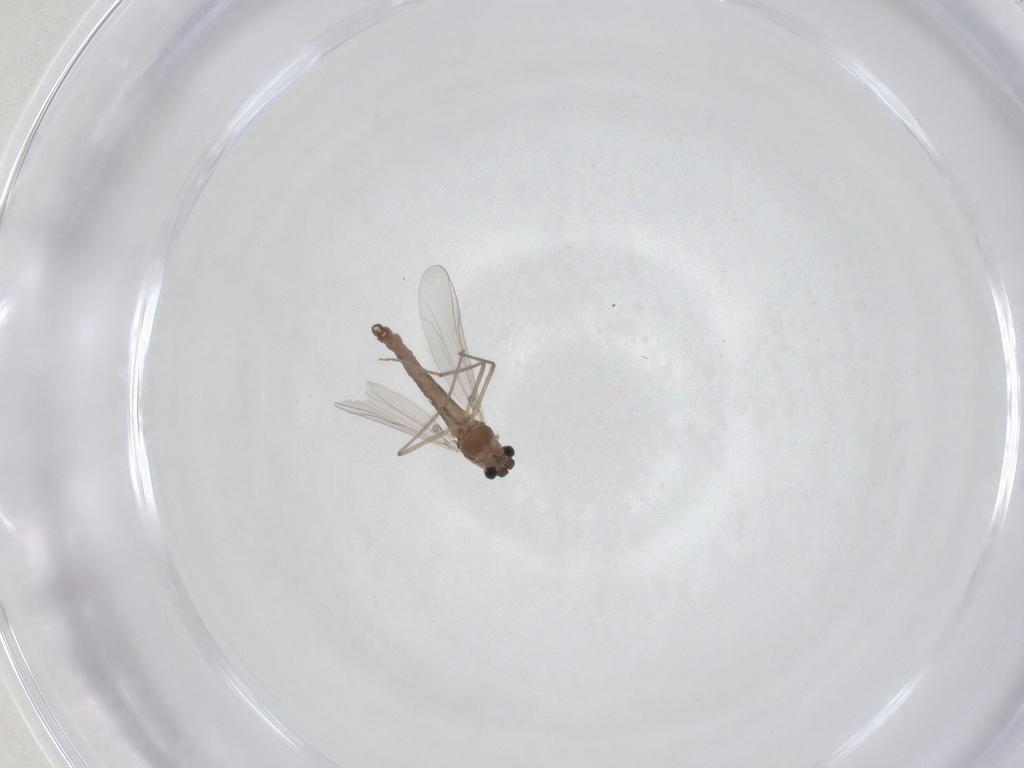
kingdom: Animalia
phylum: Arthropoda
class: Insecta
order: Diptera
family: Chironomidae
